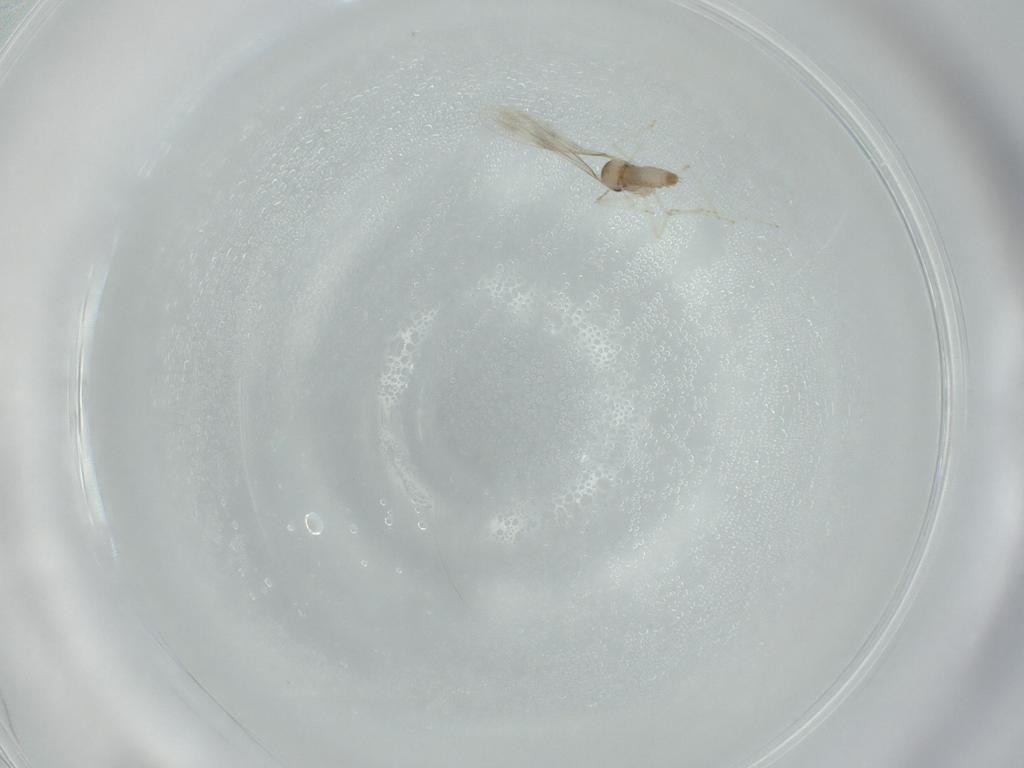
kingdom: Animalia
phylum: Arthropoda
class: Insecta
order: Diptera
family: Cecidomyiidae
